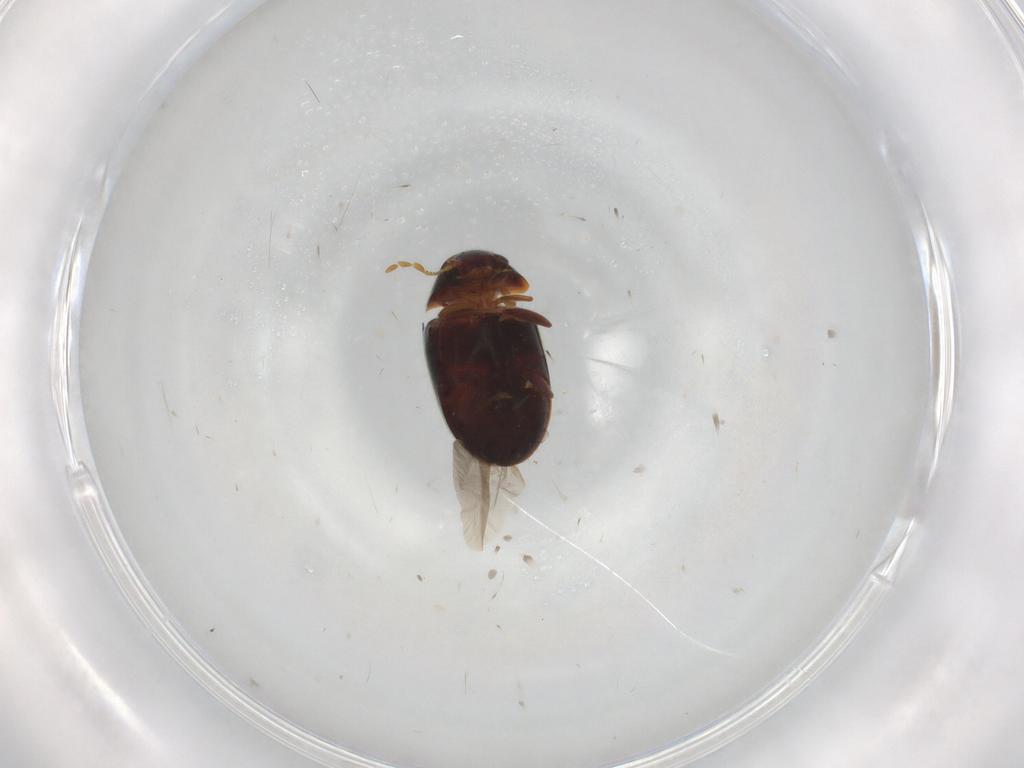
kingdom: Animalia
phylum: Arthropoda
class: Insecta
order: Coleoptera
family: Ptinidae
